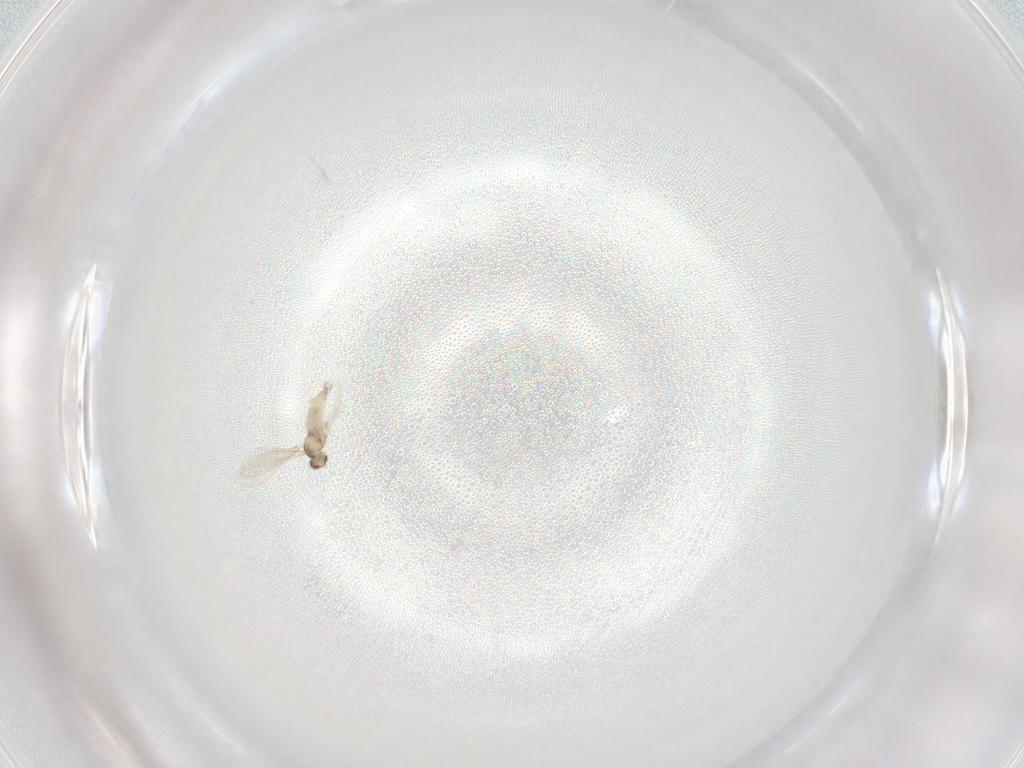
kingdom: Animalia
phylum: Arthropoda
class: Insecta
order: Diptera
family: Cecidomyiidae
